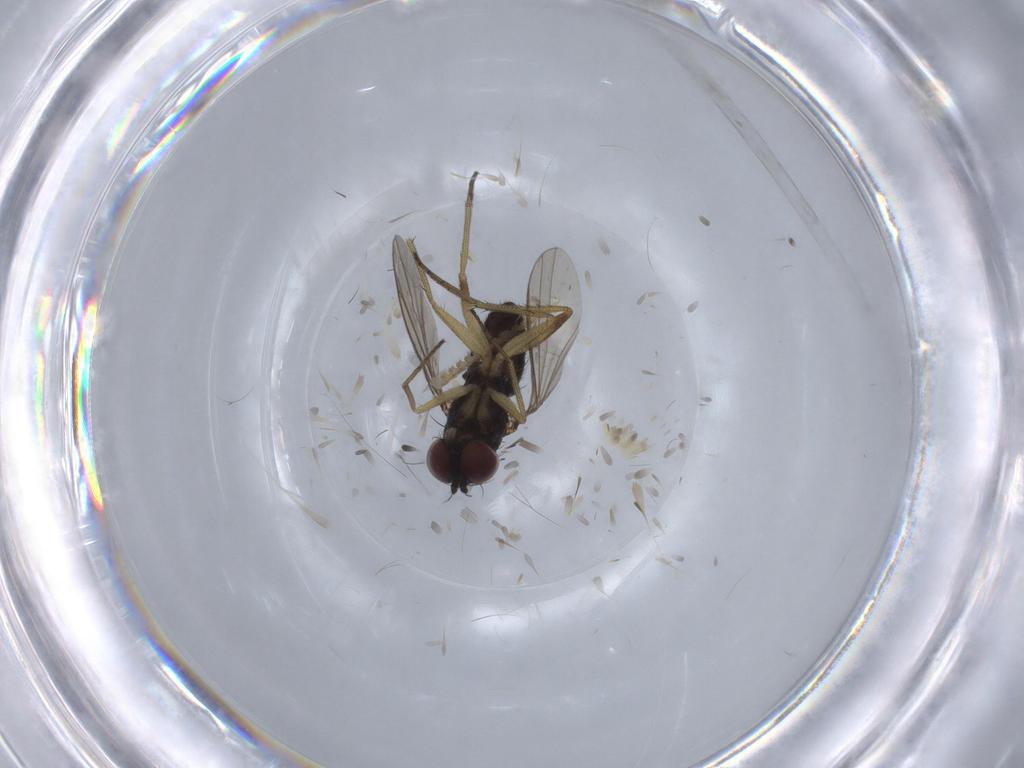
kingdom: Animalia
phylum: Arthropoda
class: Insecta
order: Diptera
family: Dolichopodidae
